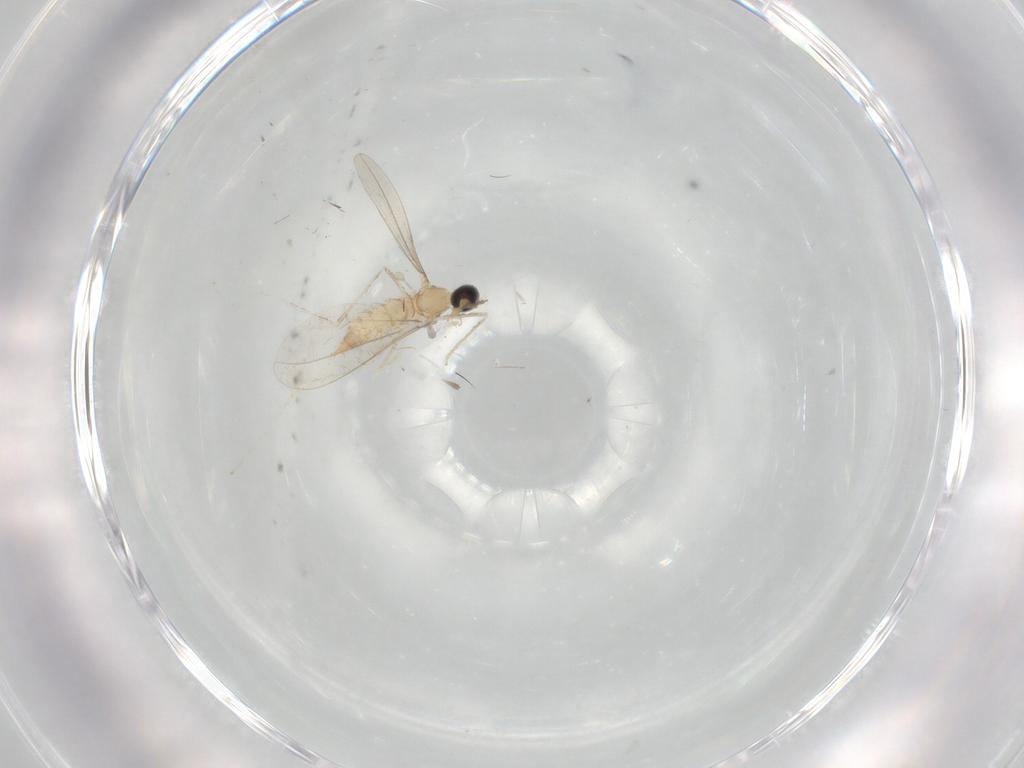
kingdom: Animalia
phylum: Arthropoda
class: Insecta
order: Diptera
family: Cecidomyiidae
